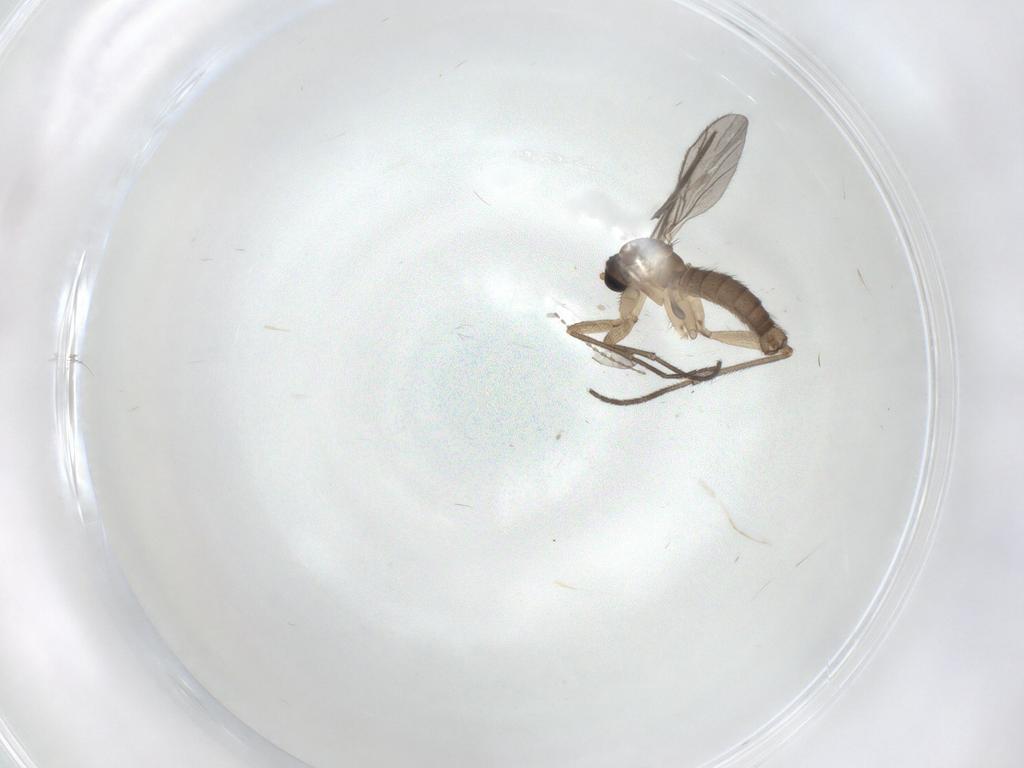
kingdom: Animalia
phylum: Arthropoda
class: Insecta
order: Diptera
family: Sciaridae
